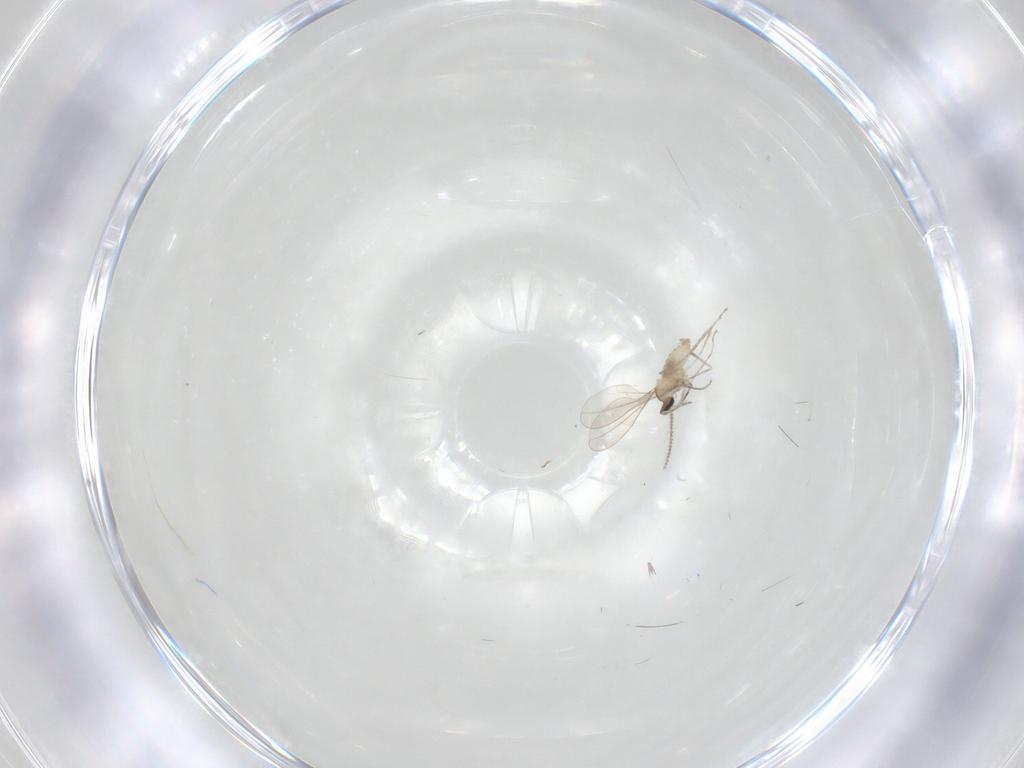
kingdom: Animalia
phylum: Arthropoda
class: Insecta
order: Diptera
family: Cecidomyiidae
